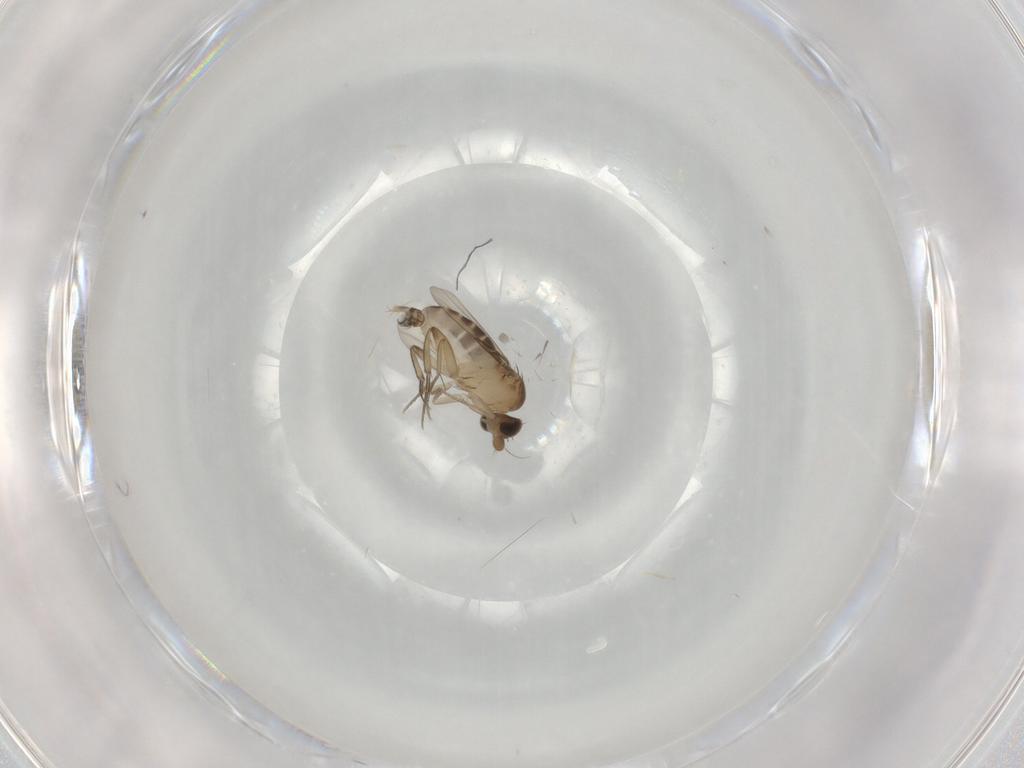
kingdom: Animalia
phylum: Arthropoda
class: Insecta
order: Diptera
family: Phoridae
